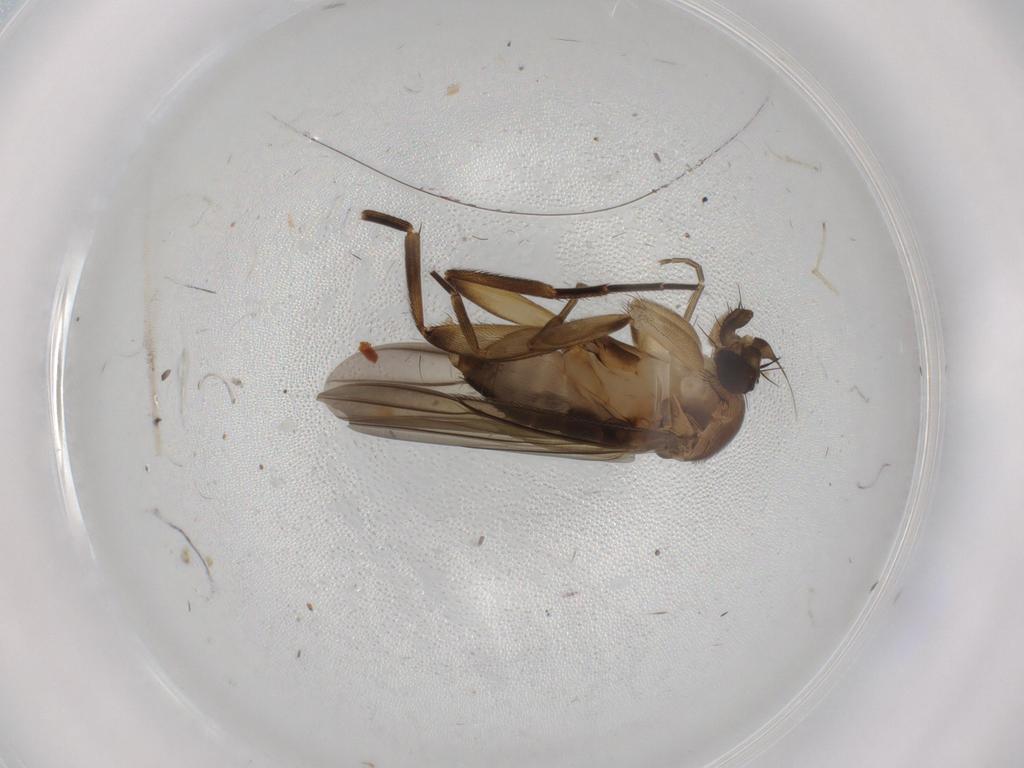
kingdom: Animalia
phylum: Arthropoda
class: Insecta
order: Diptera
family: Phoridae
